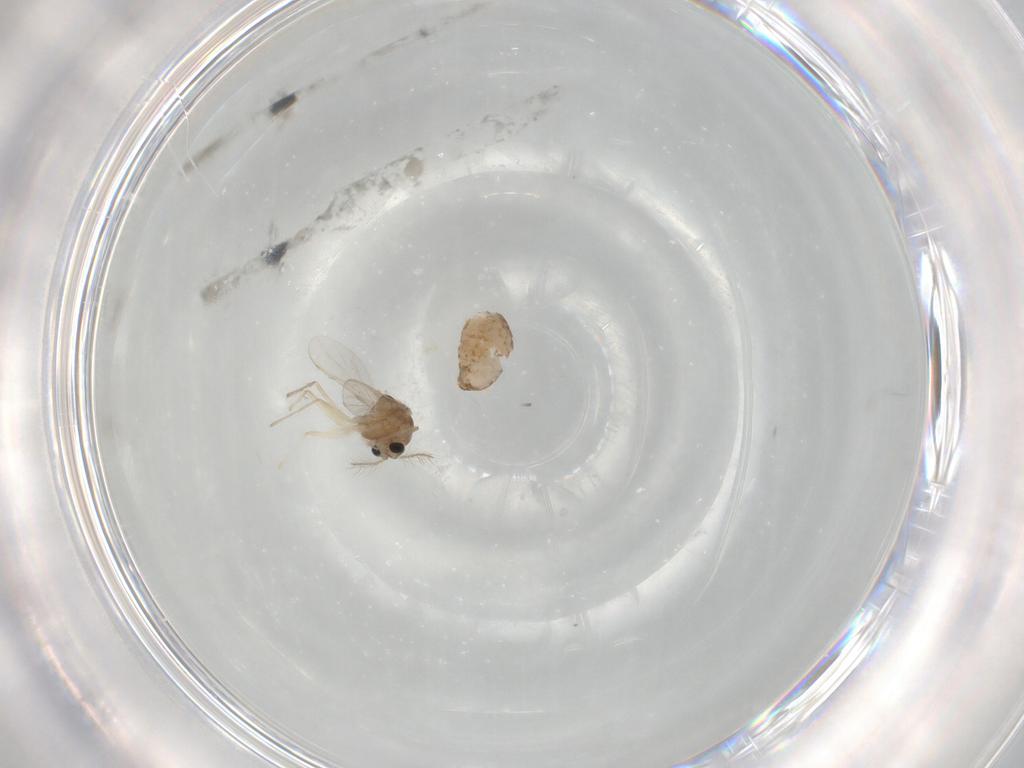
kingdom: Animalia
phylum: Arthropoda
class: Insecta
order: Diptera
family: Chironomidae
